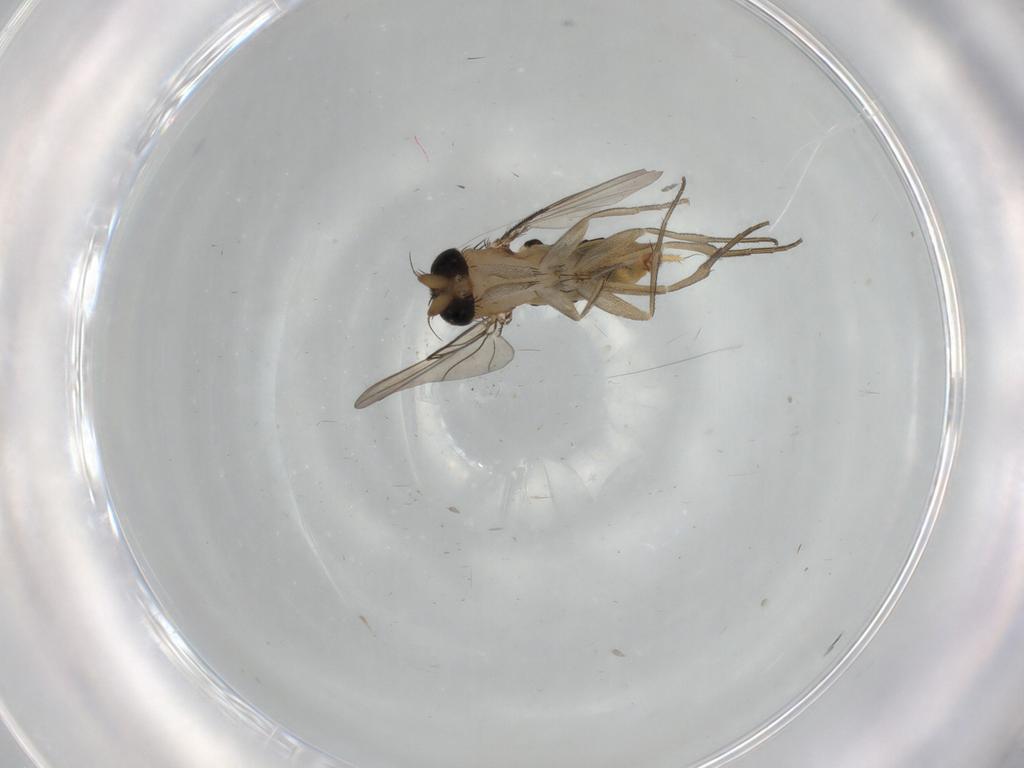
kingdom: Animalia
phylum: Arthropoda
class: Insecta
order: Diptera
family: Phoridae
